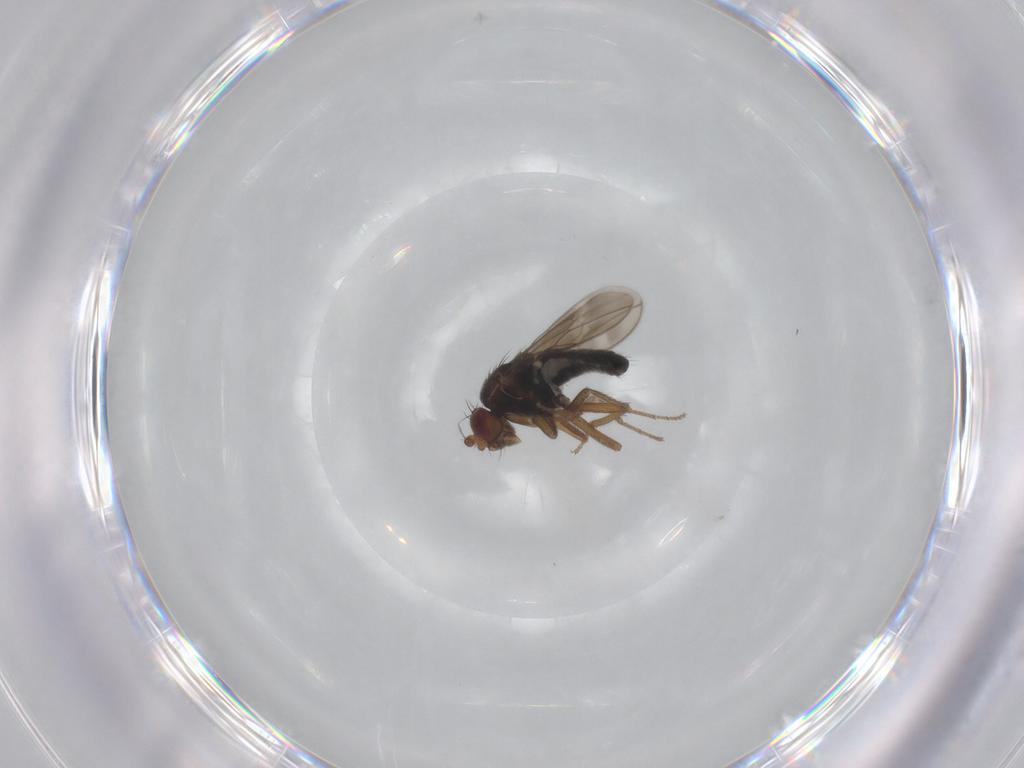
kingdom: Animalia
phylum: Arthropoda
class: Insecta
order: Diptera
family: Sphaeroceridae
